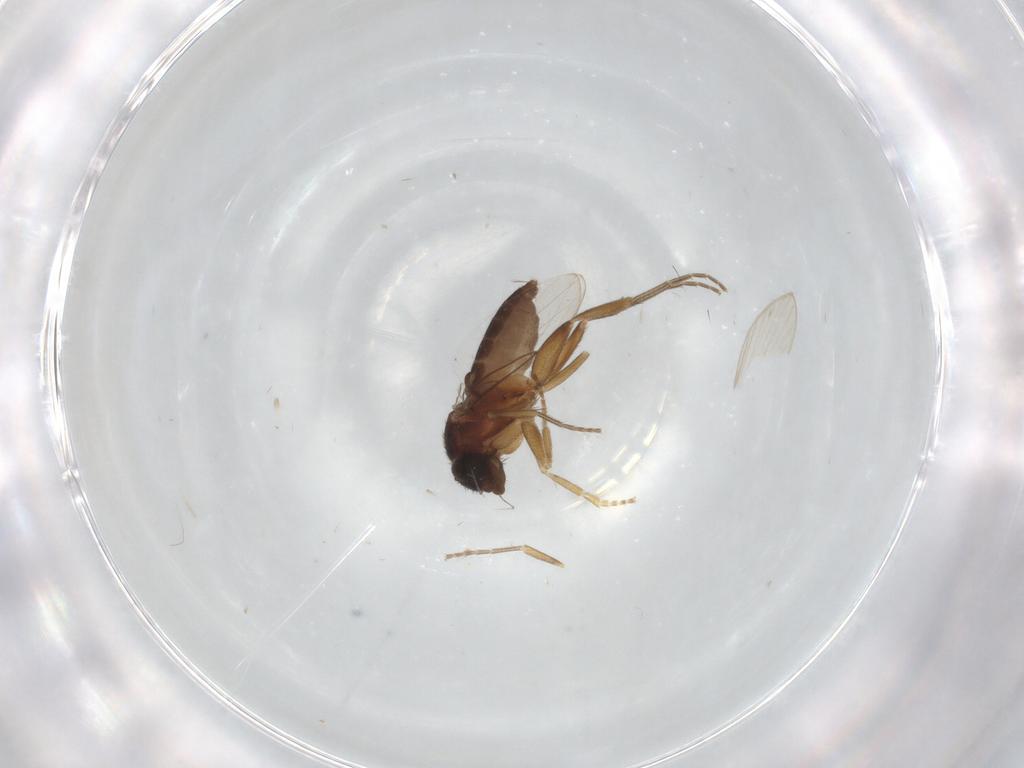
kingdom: Animalia
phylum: Arthropoda
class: Insecta
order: Diptera
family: Phoridae
